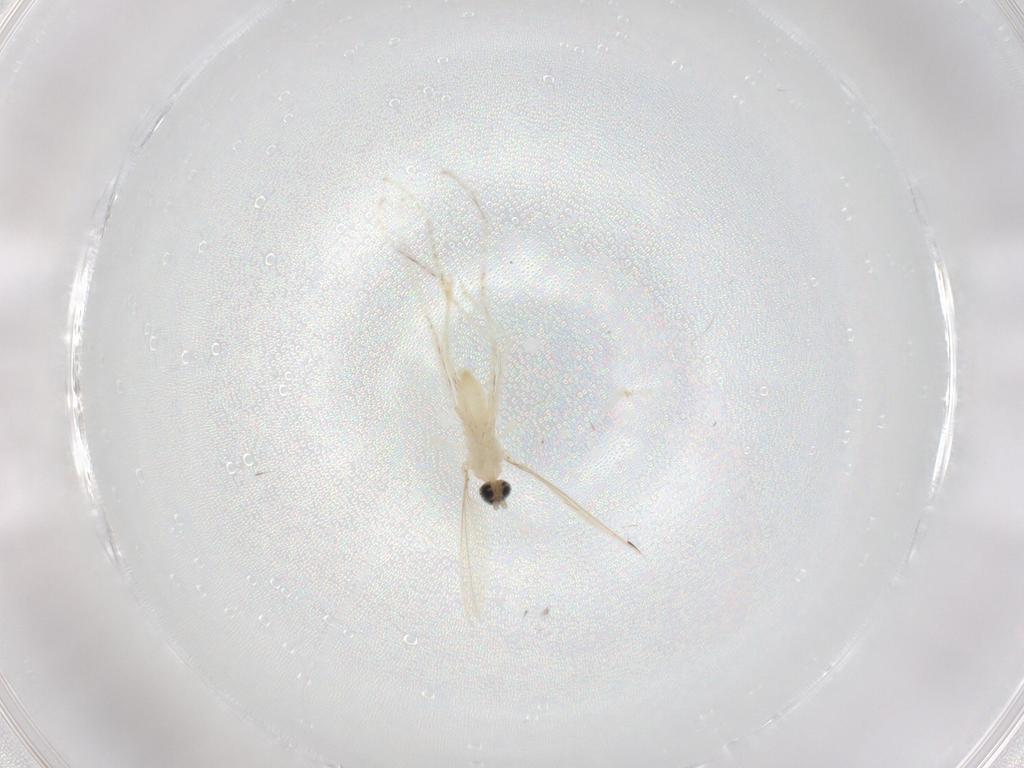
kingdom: Animalia
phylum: Arthropoda
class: Insecta
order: Diptera
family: Cecidomyiidae
